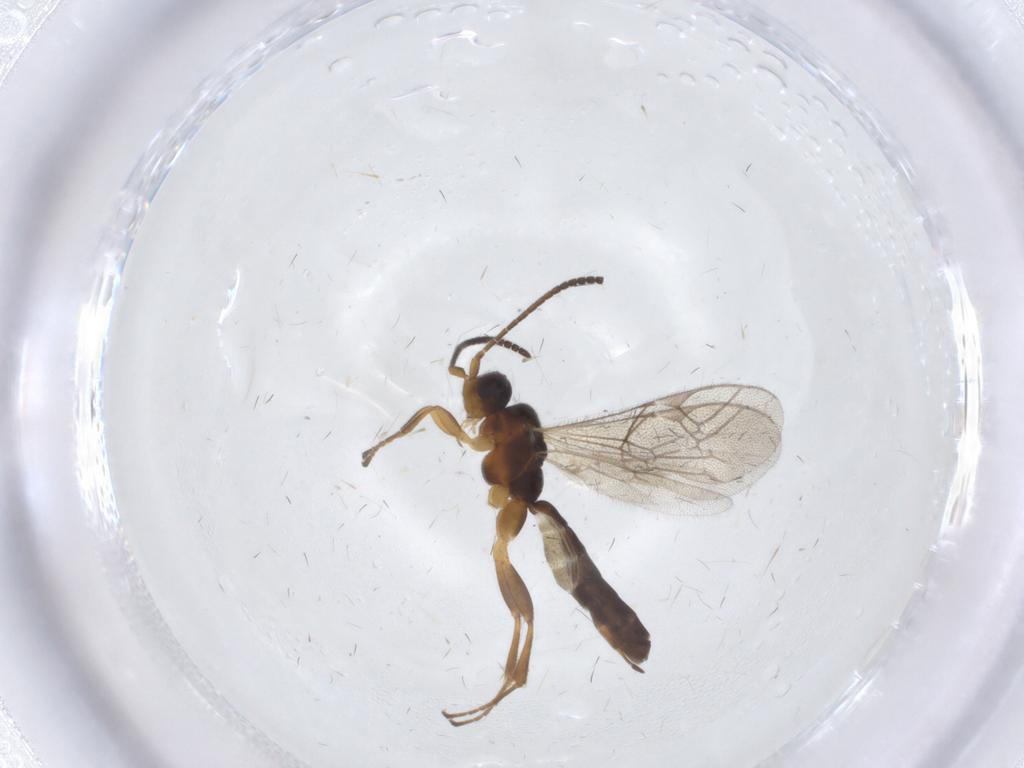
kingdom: Animalia
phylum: Arthropoda
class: Insecta
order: Hymenoptera
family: Ichneumonidae
